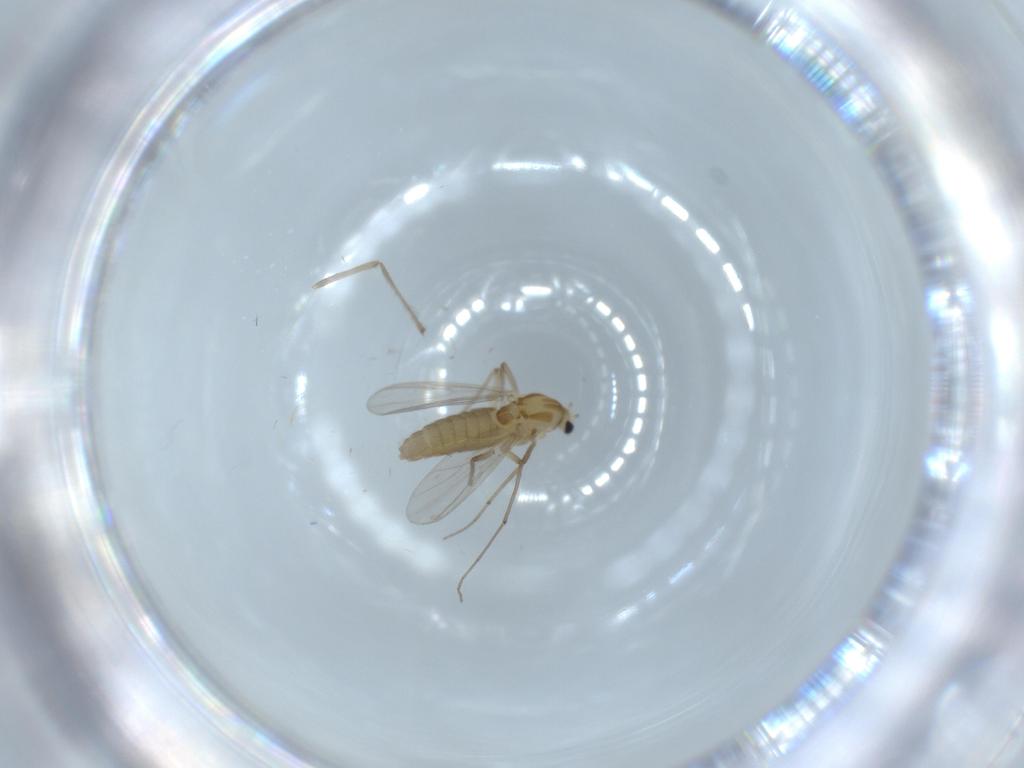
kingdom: Animalia
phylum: Arthropoda
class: Insecta
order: Diptera
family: Chironomidae
